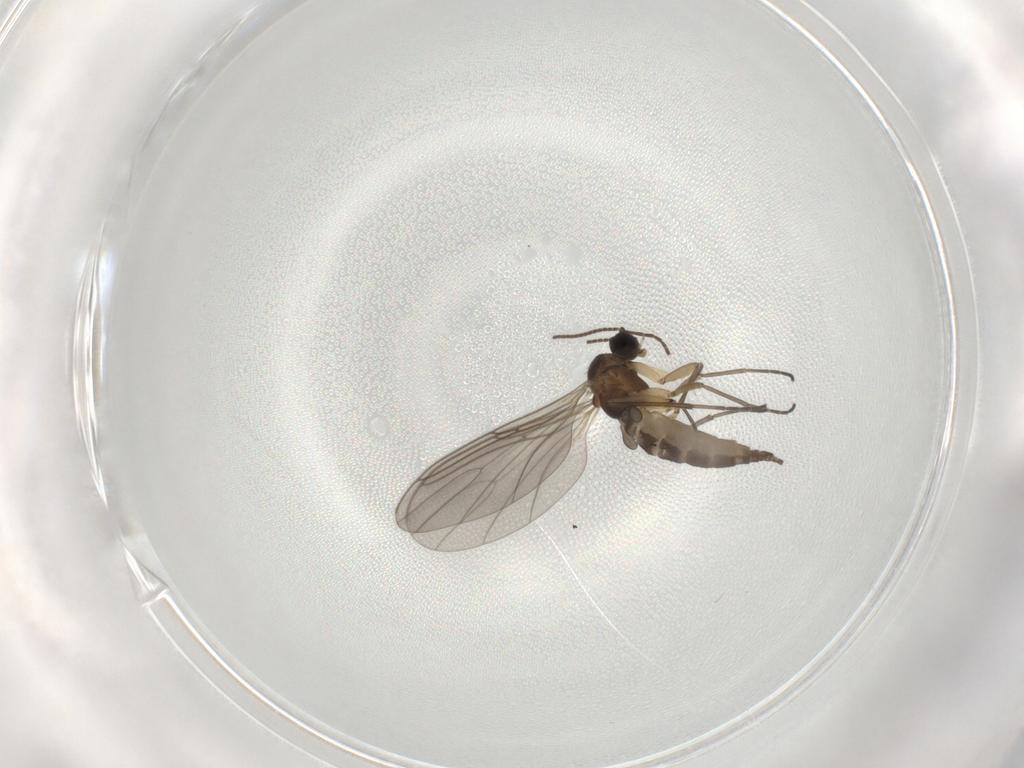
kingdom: Animalia
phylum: Arthropoda
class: Insecta
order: Diptera
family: Sciaridae
